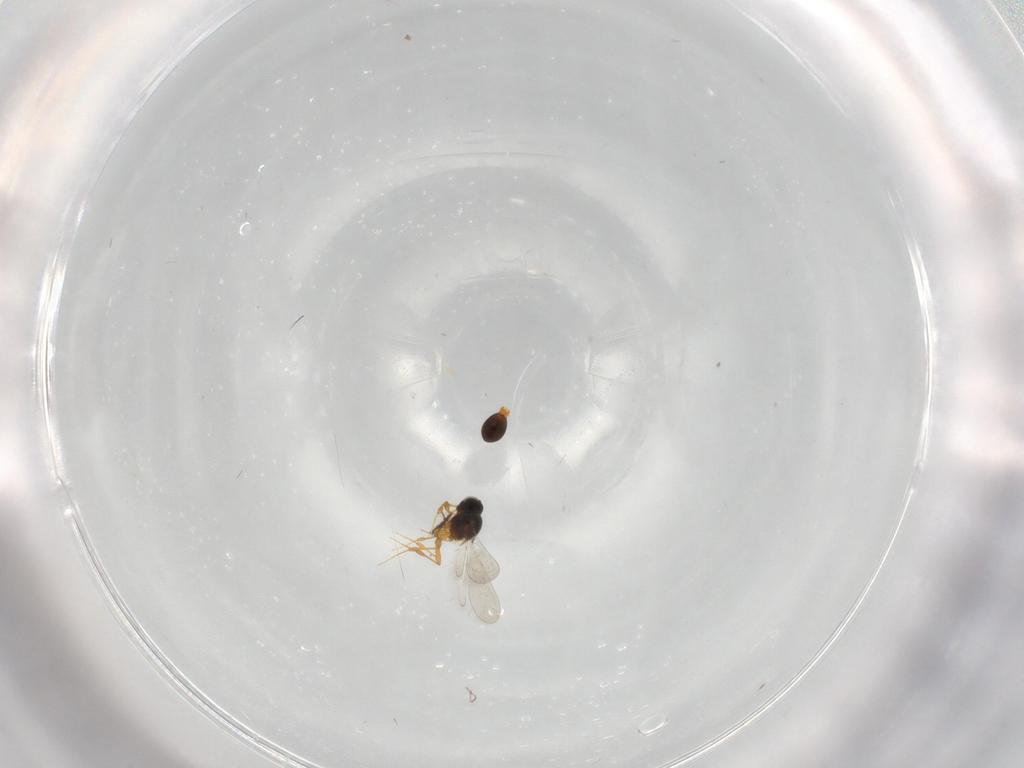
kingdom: Animalia
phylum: Arthropoda
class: Insecta
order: Hymenoptera
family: Platygastridae
